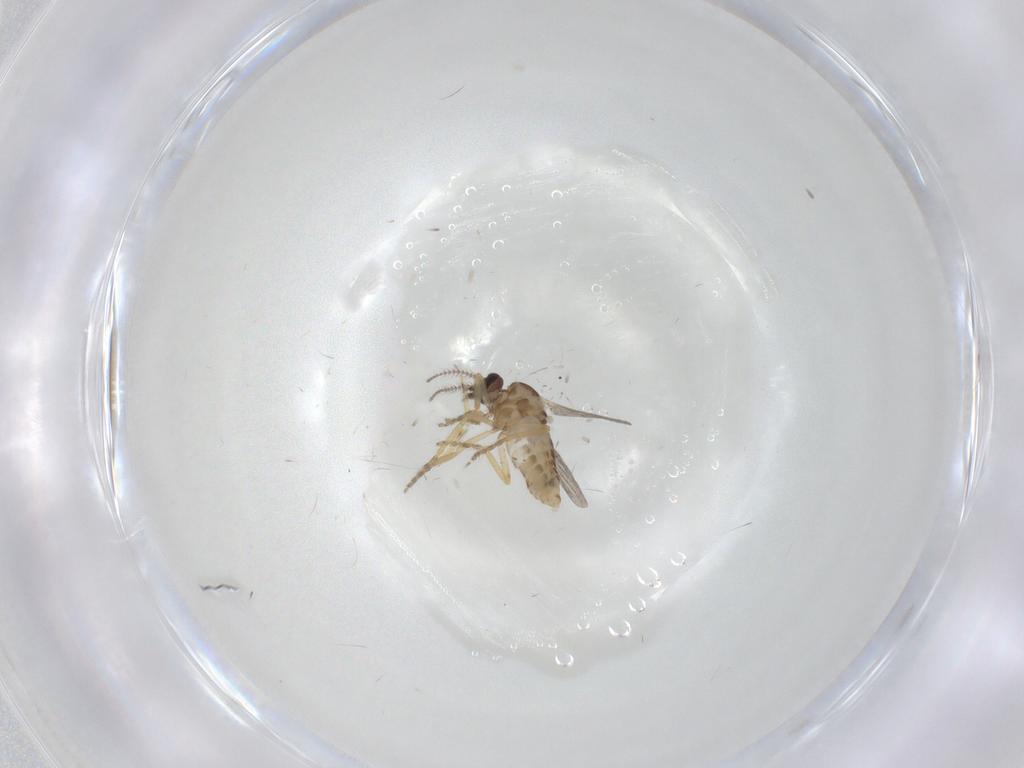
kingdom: Animalia
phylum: Arthropoda
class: Insecta
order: Diptera
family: Ceratopogonidae
